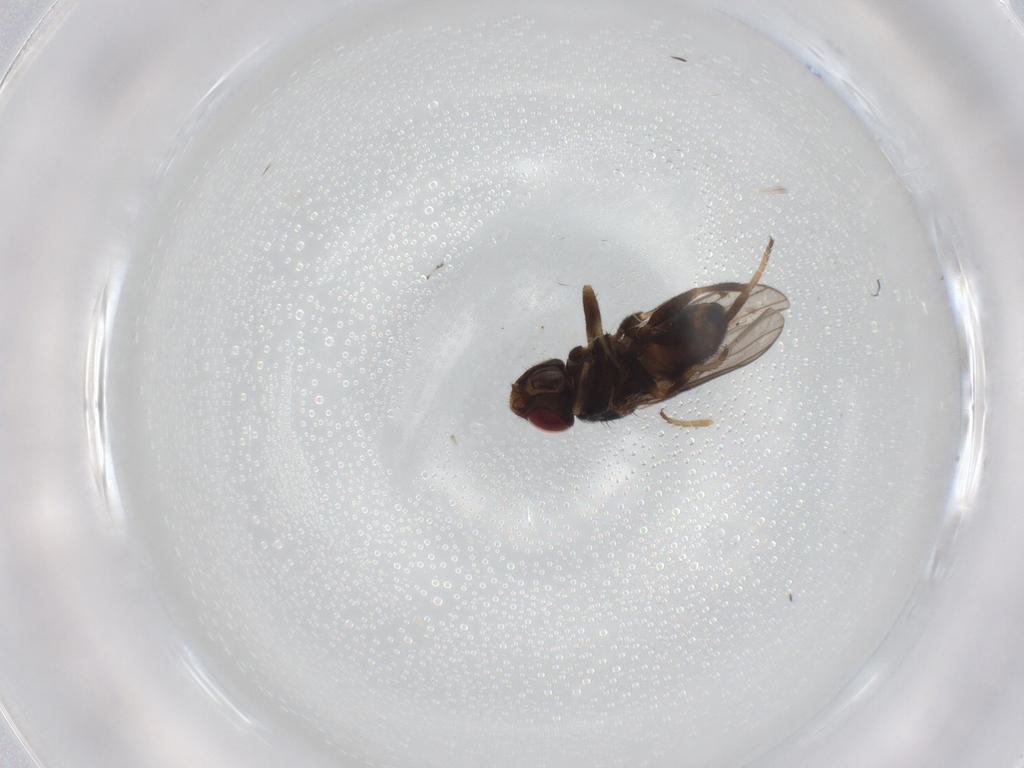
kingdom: Animalia
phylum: Arthropoda
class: Insecta
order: Diptera
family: Chloropidae
